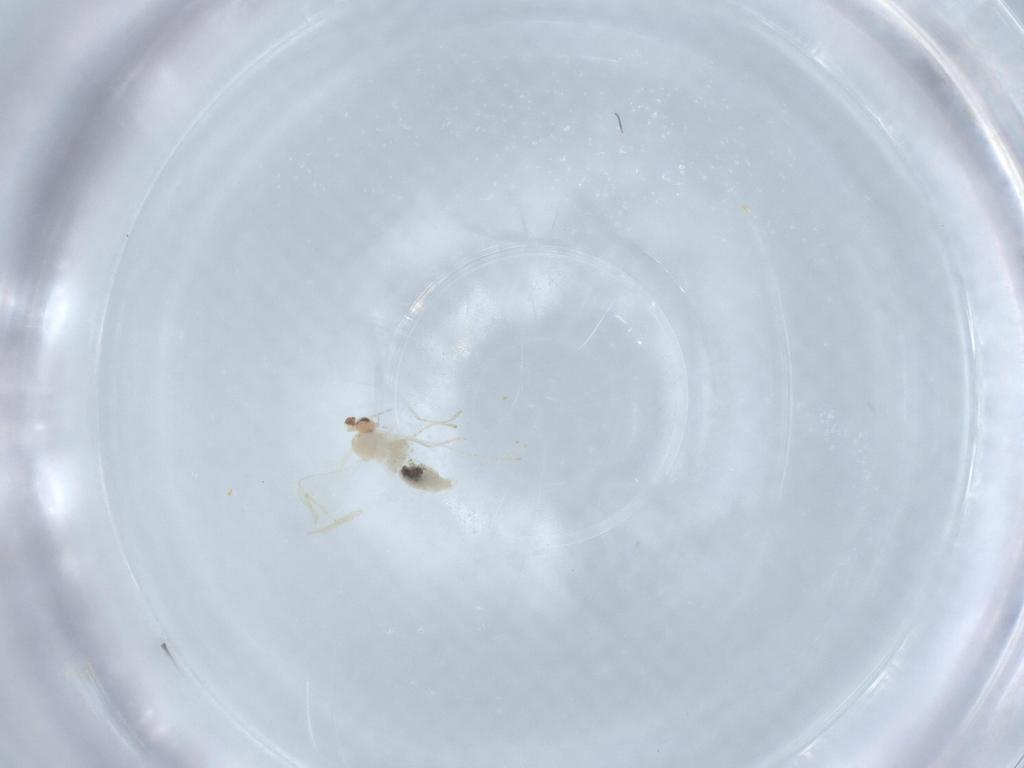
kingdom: Animalia
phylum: Arthropoda
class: Insecta
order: Diptera
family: Cecidomyiidae
